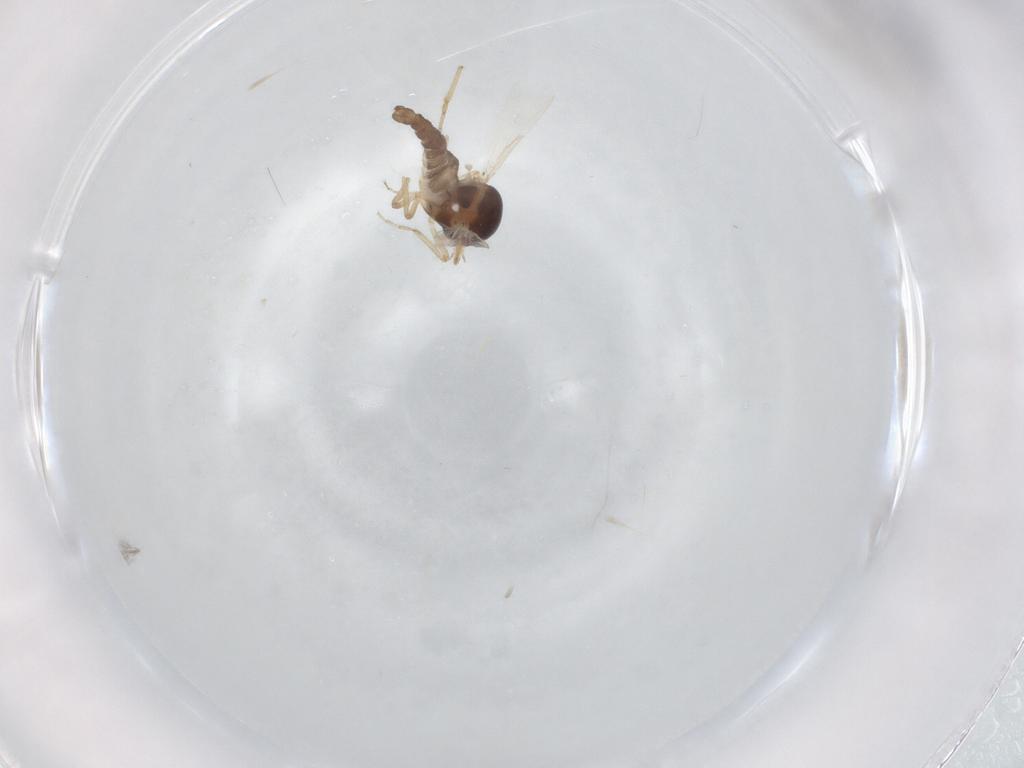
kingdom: Animalia
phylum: Arthropoda
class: Insecta
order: Diptera
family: Ceratopogonidae
